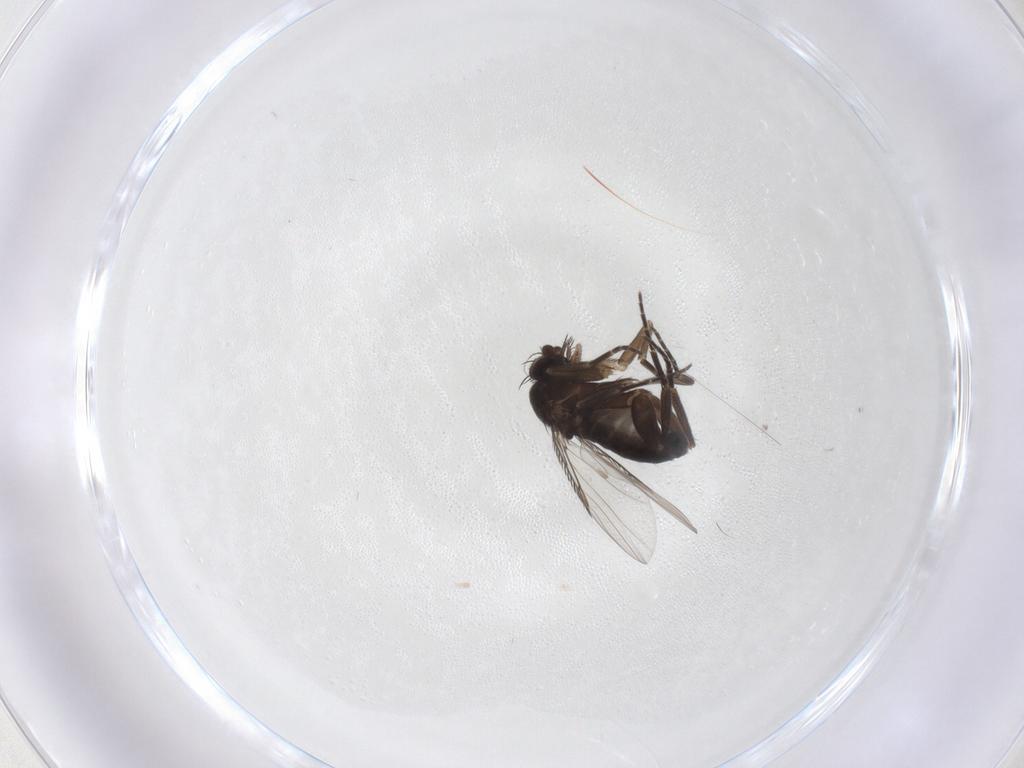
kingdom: Animalia
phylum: Arthropoda
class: Insecta
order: Diptera
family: Phoridae
